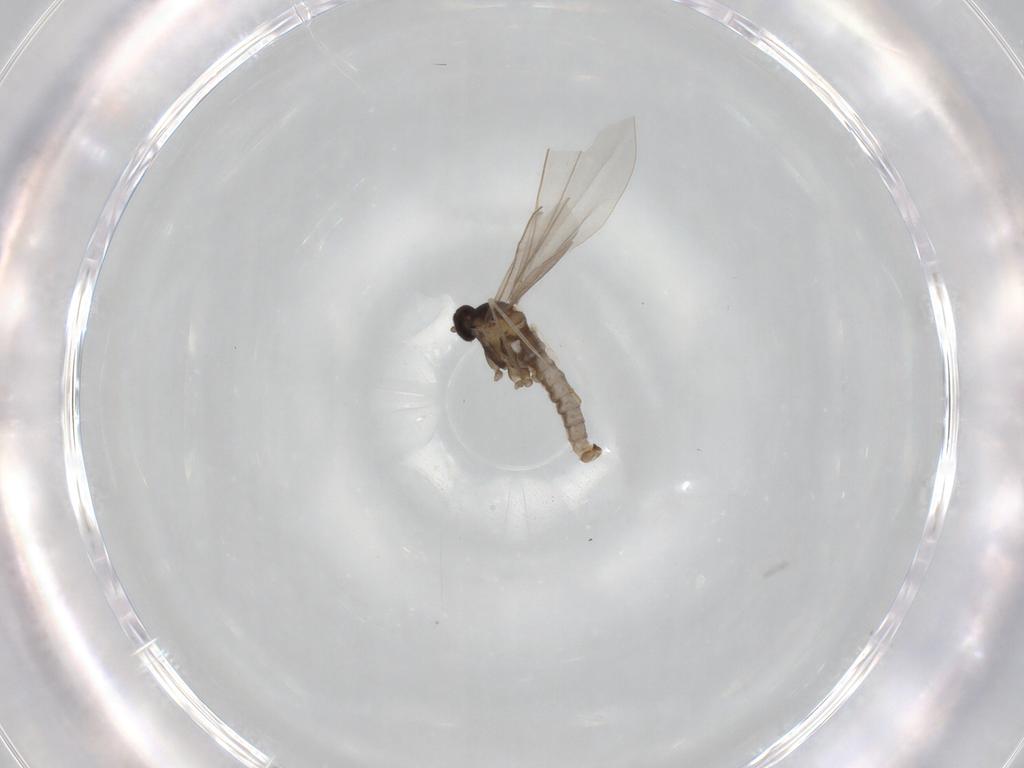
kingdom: Animalia
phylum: Arthropoda
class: Insecta
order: Diptera
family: Cecidomyiidae
